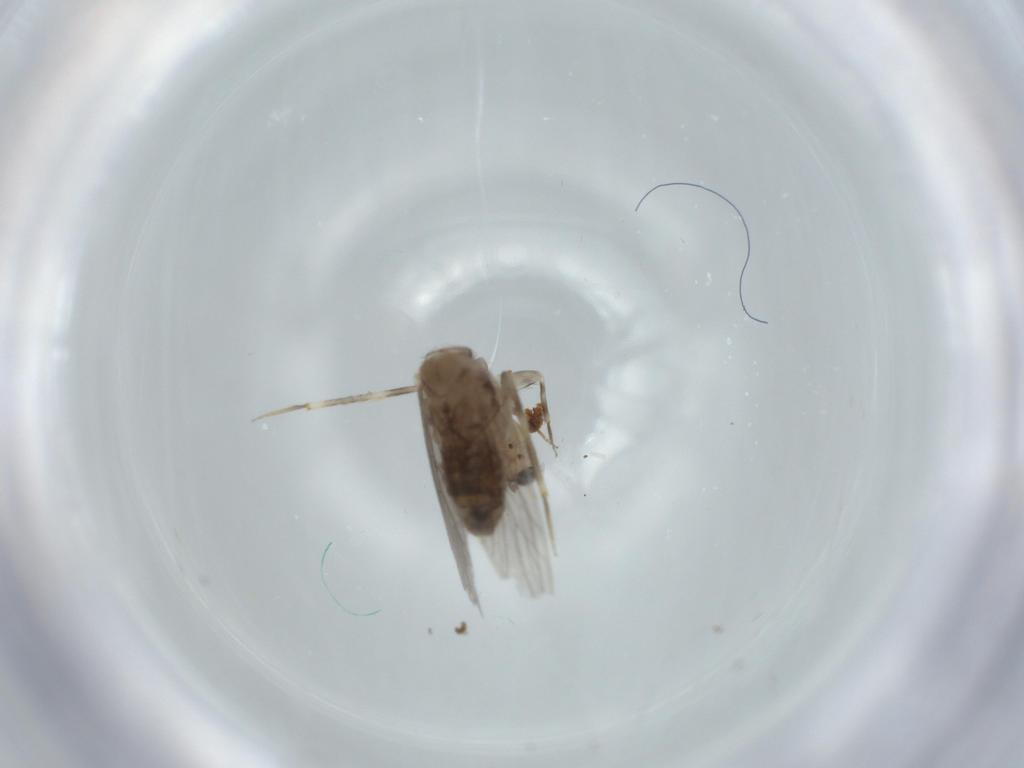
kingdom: Animalia
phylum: Arthropoda
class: Insecta
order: Psocodea
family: Lepidopsocidae
